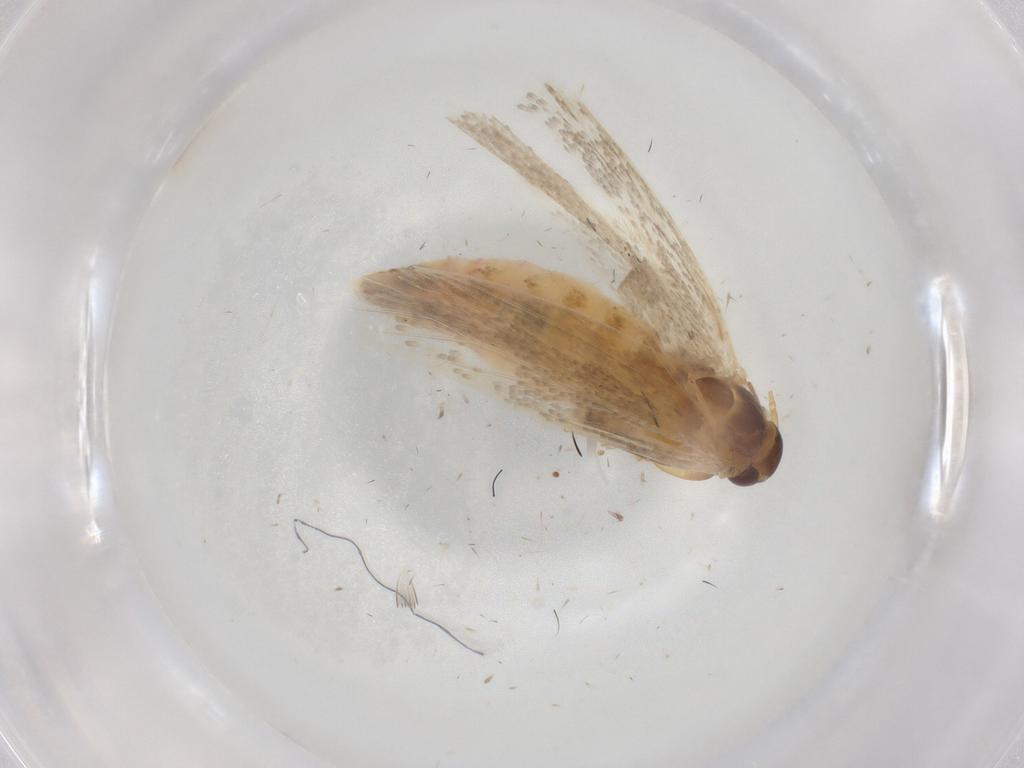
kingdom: Animalia
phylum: Arthropoda
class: Insecta
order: Lepidoptera
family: Gelechiidae
